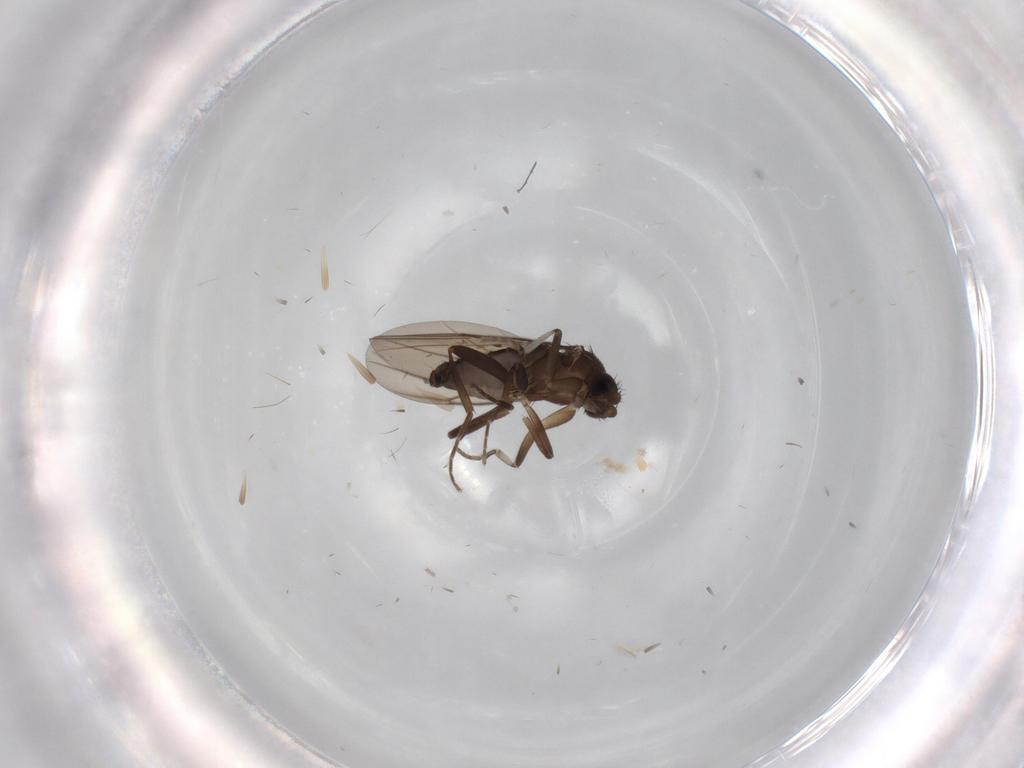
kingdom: Animalia
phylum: Arthropoda
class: Insecta
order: Diptera
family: Phoridae
